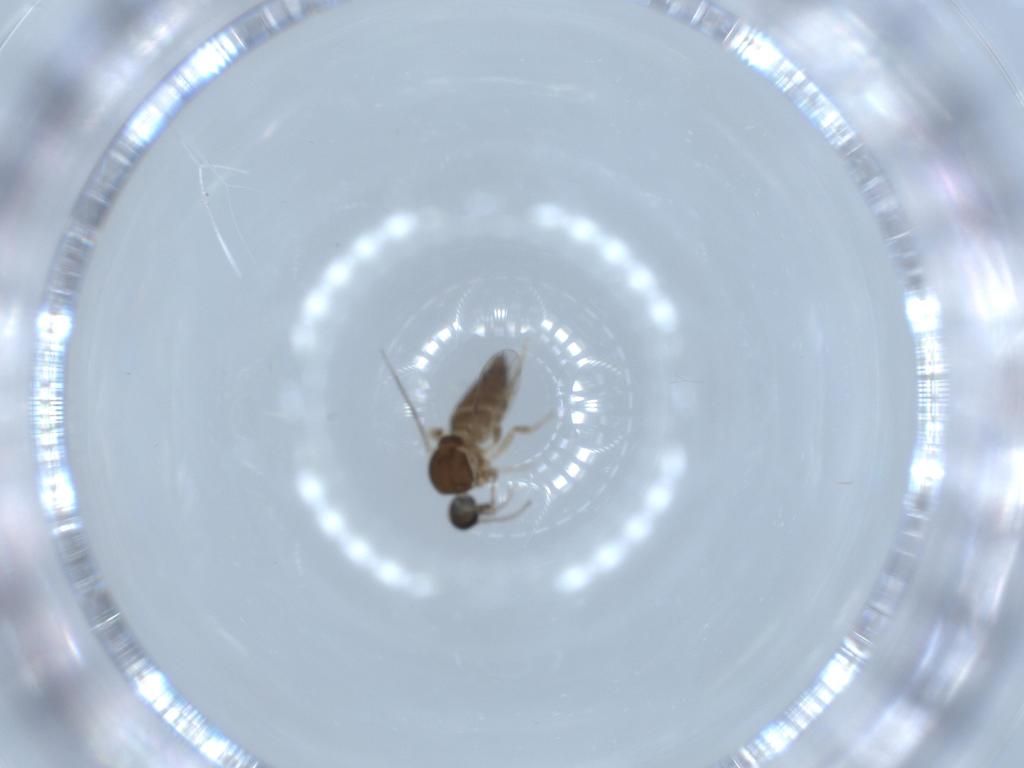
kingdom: Animalia
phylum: Arthropoda
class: Insecta
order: Diptera
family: Ceratopogonidae
